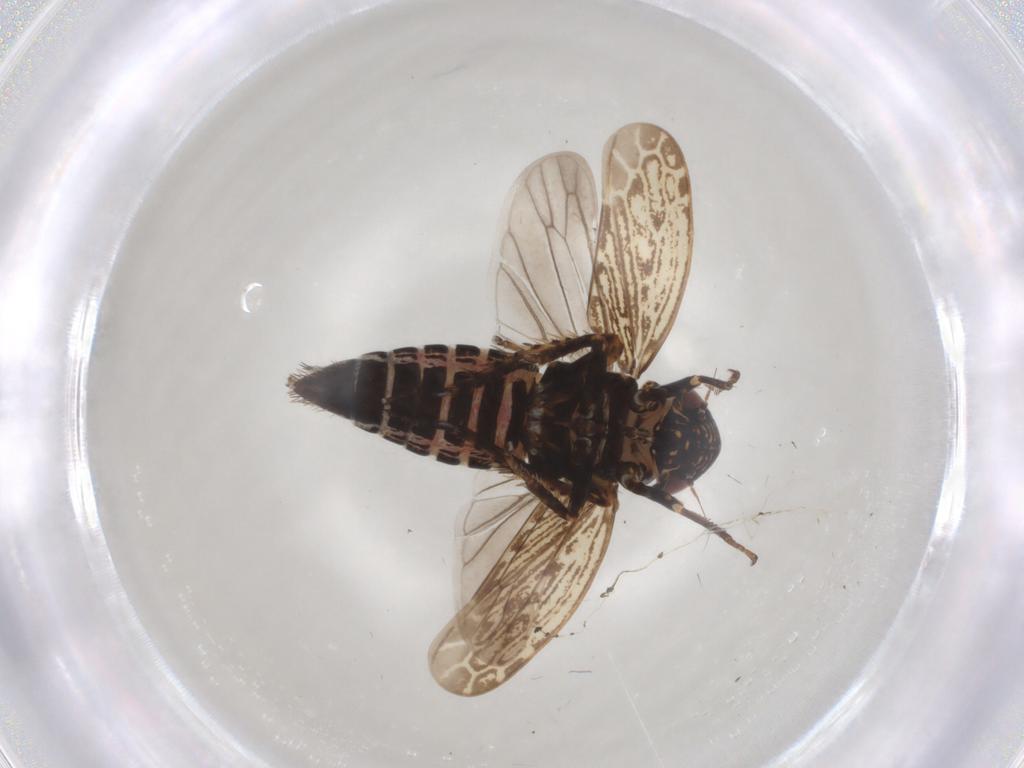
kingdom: Animalia
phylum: Arthropoda
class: Insecta
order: Hemiptera
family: Cicadellidae
